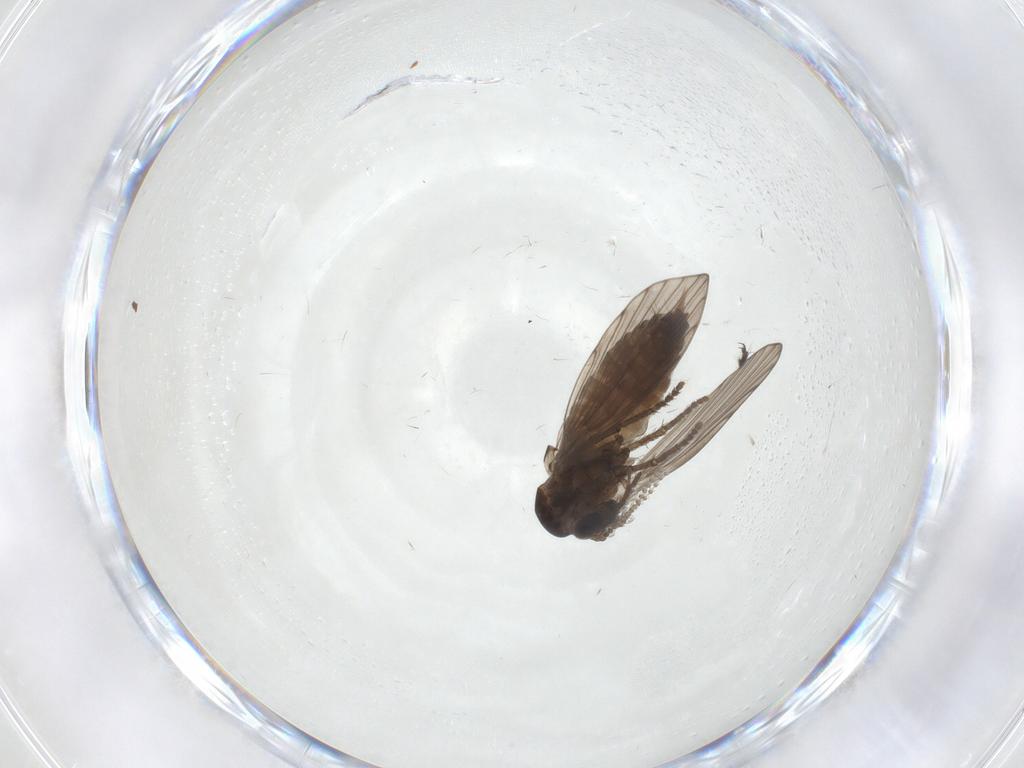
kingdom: Animalia
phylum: Arthropoda
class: Insecta
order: Diptera
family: Psychodidae
